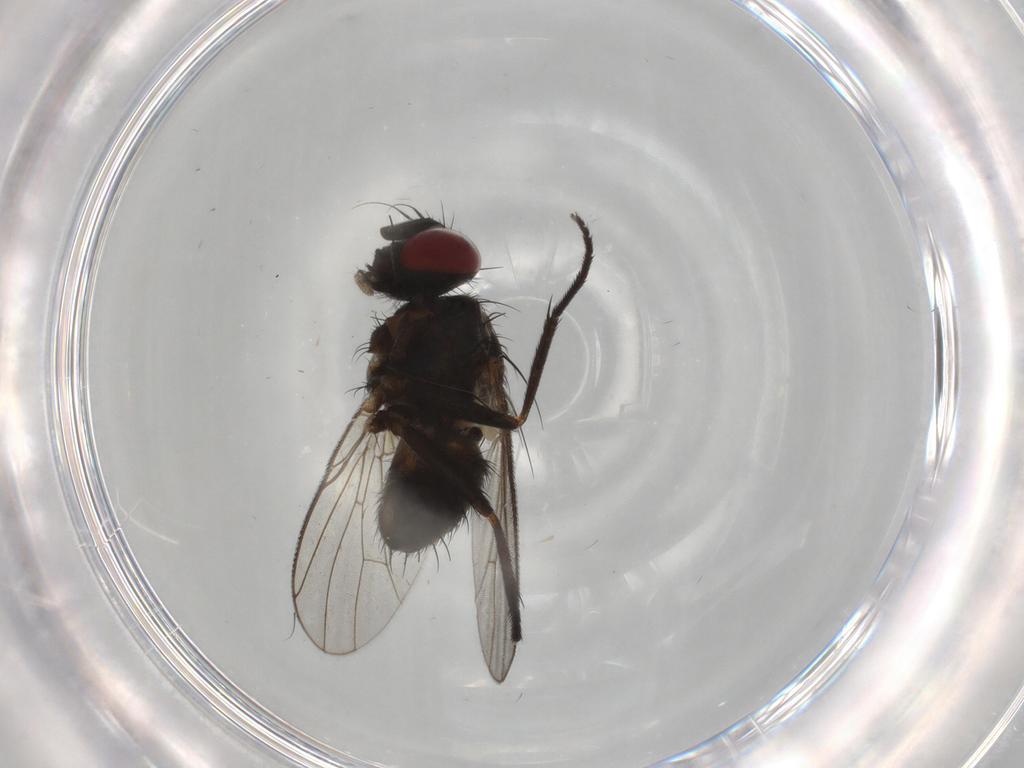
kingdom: Animalia
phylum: Arthropoda
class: Insecta
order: Diptera
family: Muscidae
